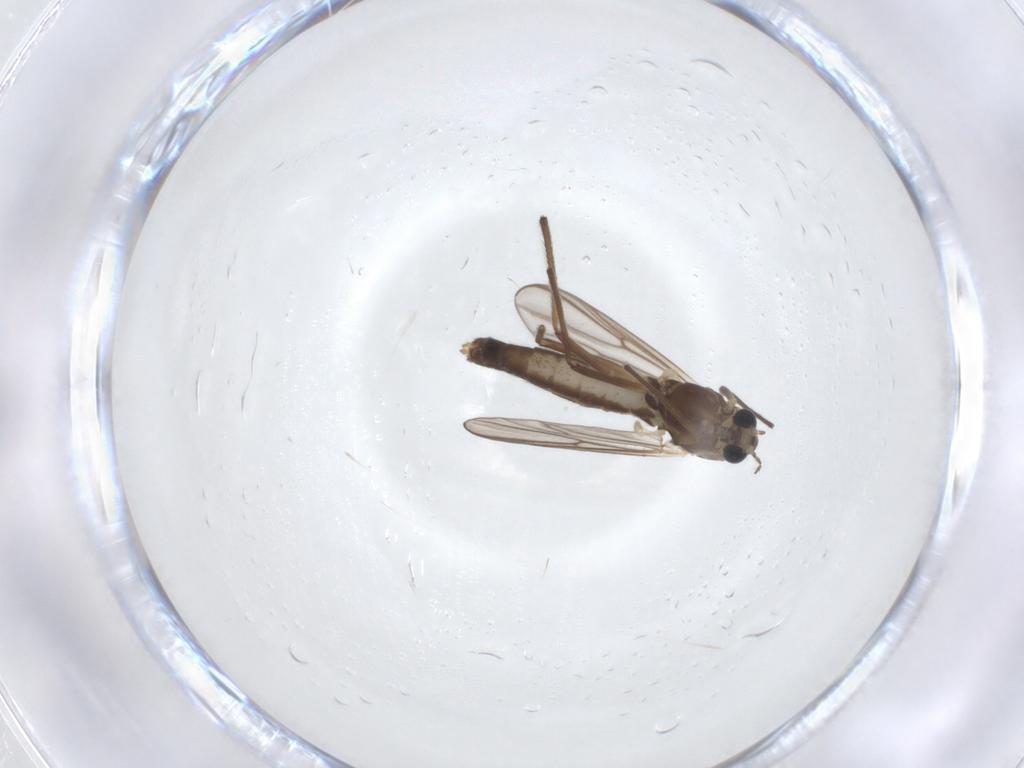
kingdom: Animalia
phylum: Arthropoda
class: Insecta
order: Diptera
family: Chironomidae
